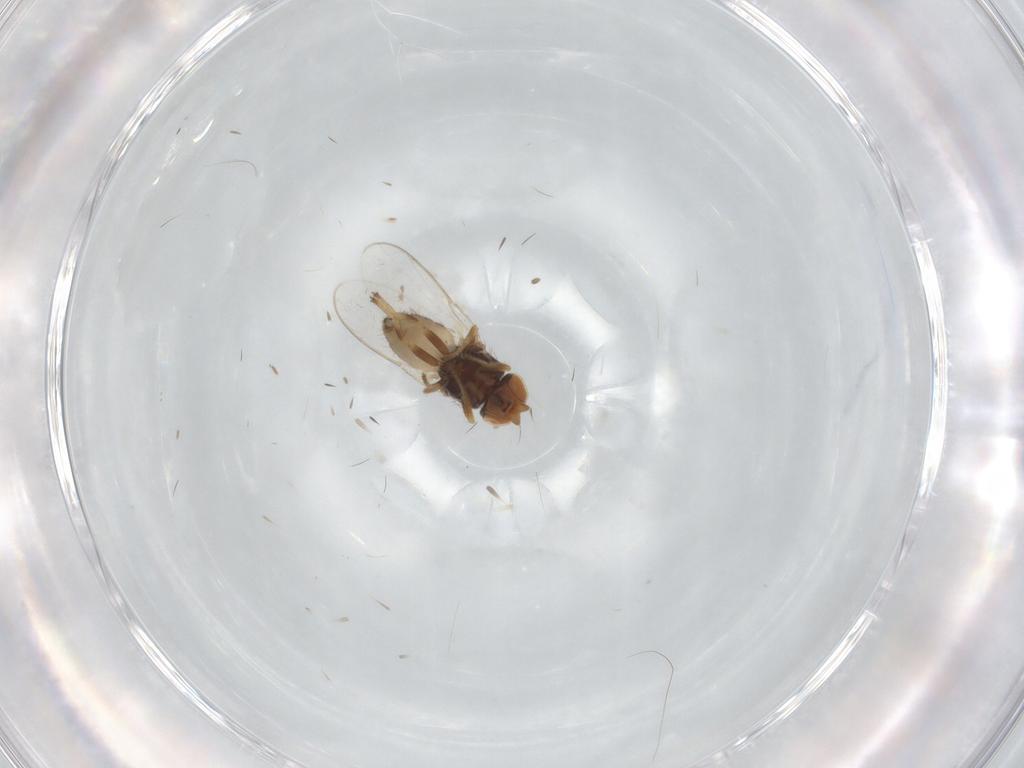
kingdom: Animalia
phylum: Arthropoda
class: Insecta
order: Diptera
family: Chloropidae
